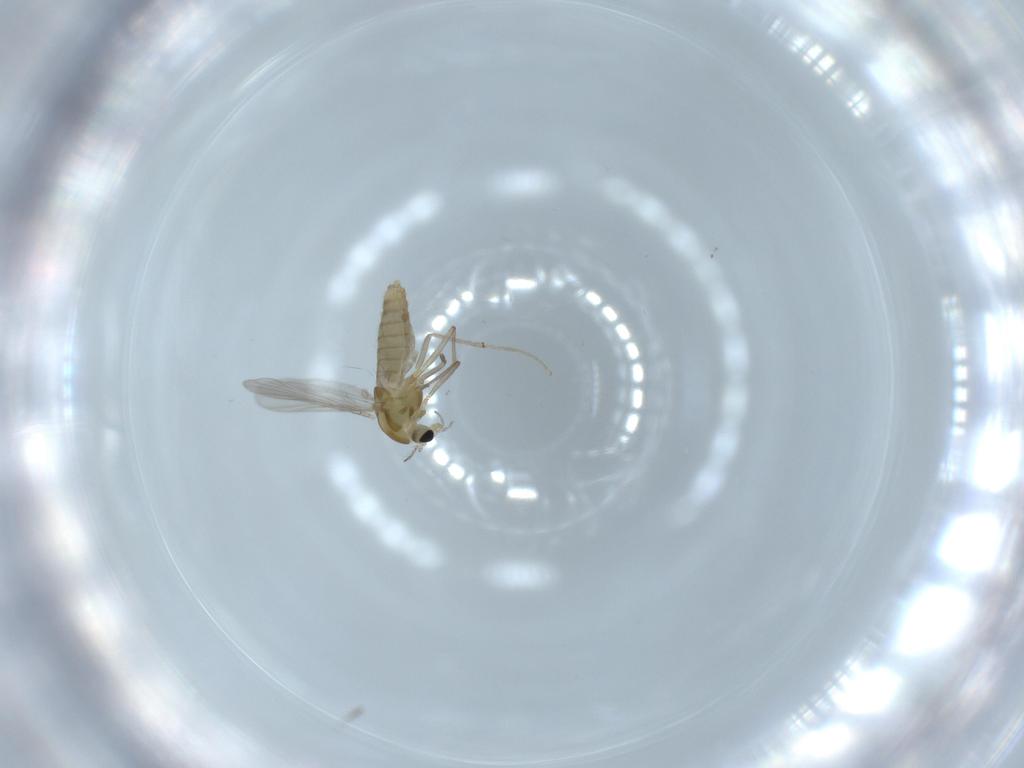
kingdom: Animalia
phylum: Arthropoda
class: Insecta
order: Diptera
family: Chironomidae
